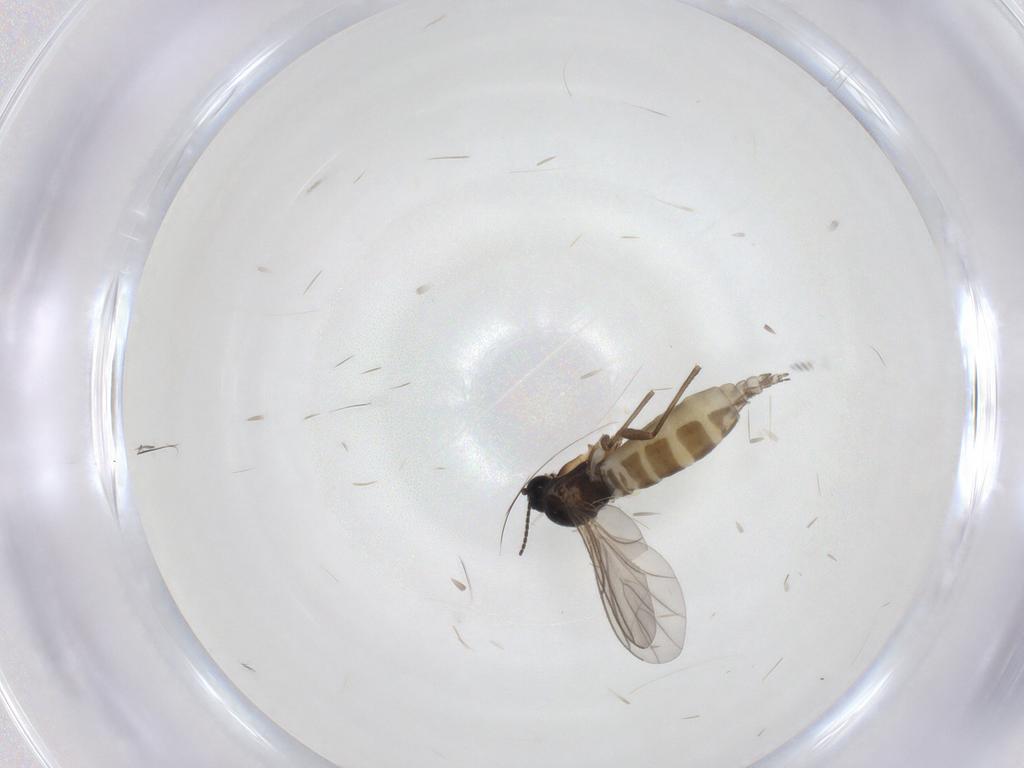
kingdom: Animalia
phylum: Arthropoda
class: Insecta
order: Diptera
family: Sciaridae
